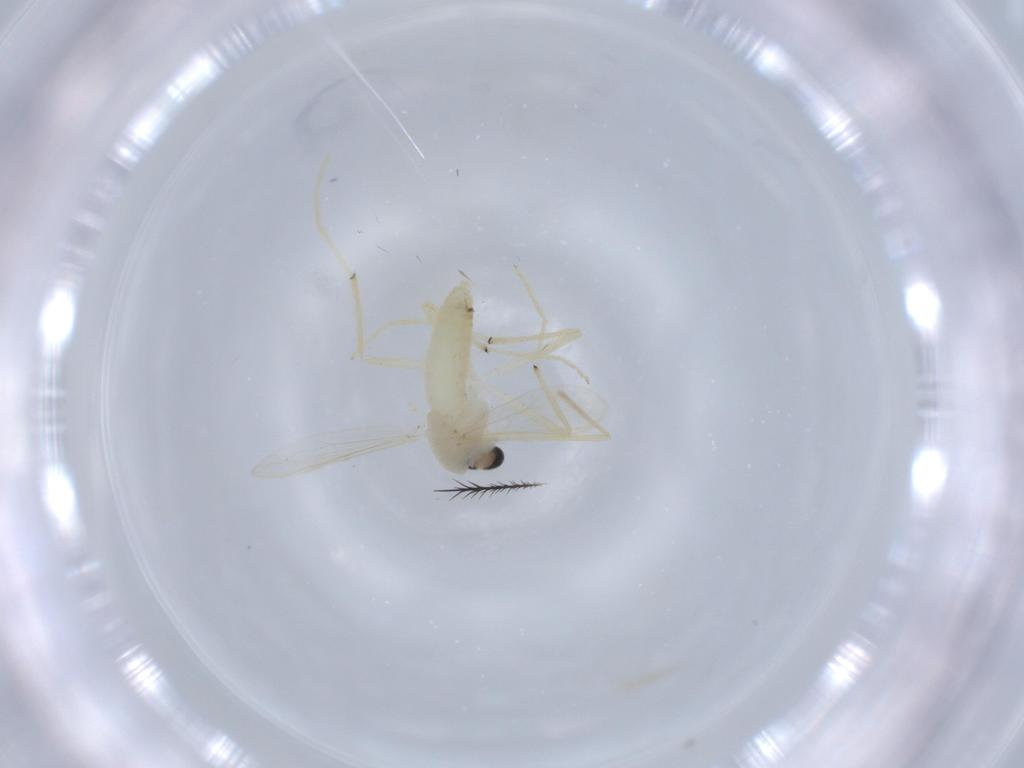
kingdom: Animalia
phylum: Arthropoda
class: Insecta
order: Diptera
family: Chironomidae
